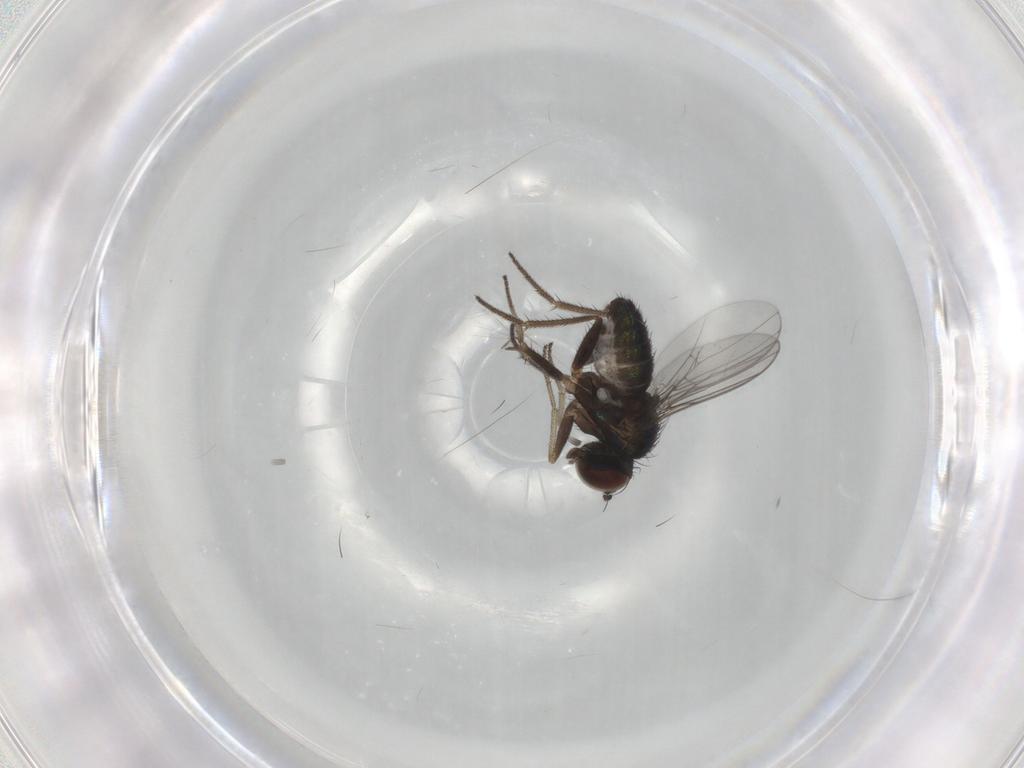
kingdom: Animalia
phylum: Arthropoda
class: Insecta
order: Diptera
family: Chironomidae
